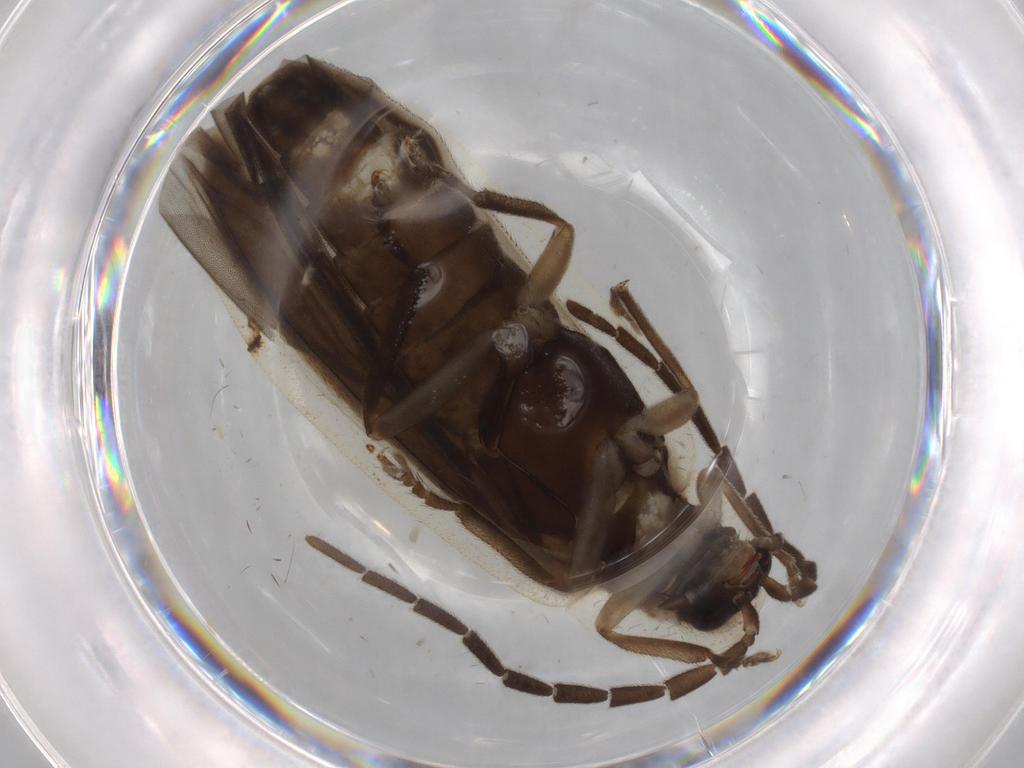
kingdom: Animalia
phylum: Arthropoda
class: Insecta
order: Coleoptera
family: Lampyridae
